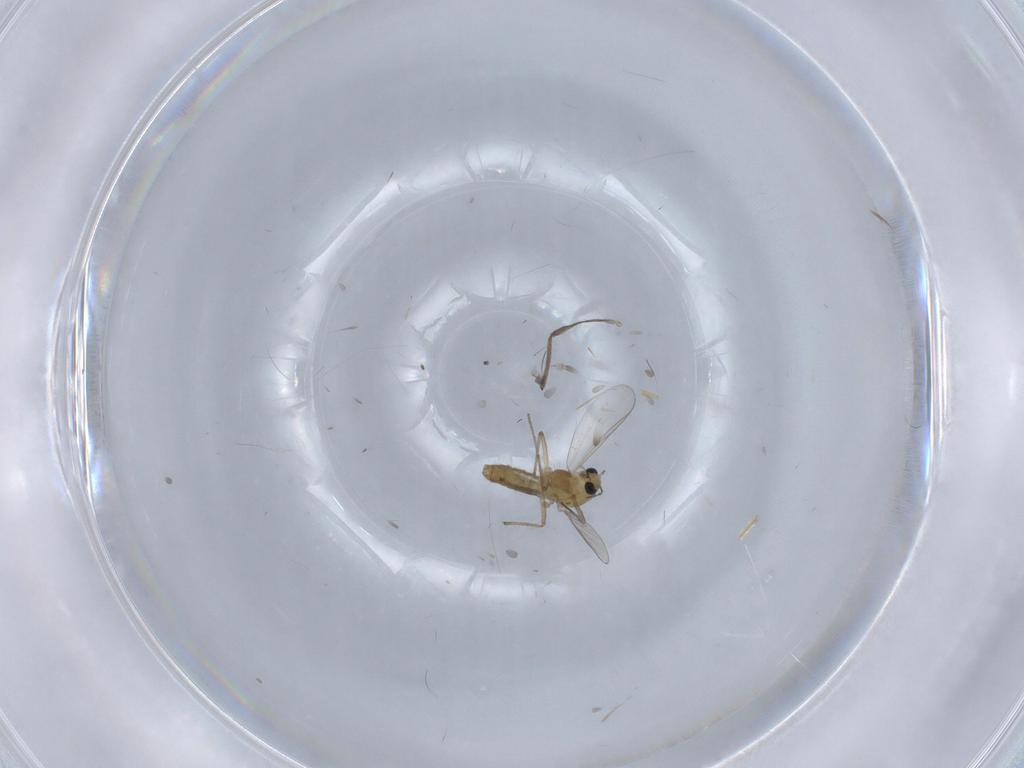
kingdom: Animalia
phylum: Arthropoda
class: Insecta
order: Diptera
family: Chironomidae
